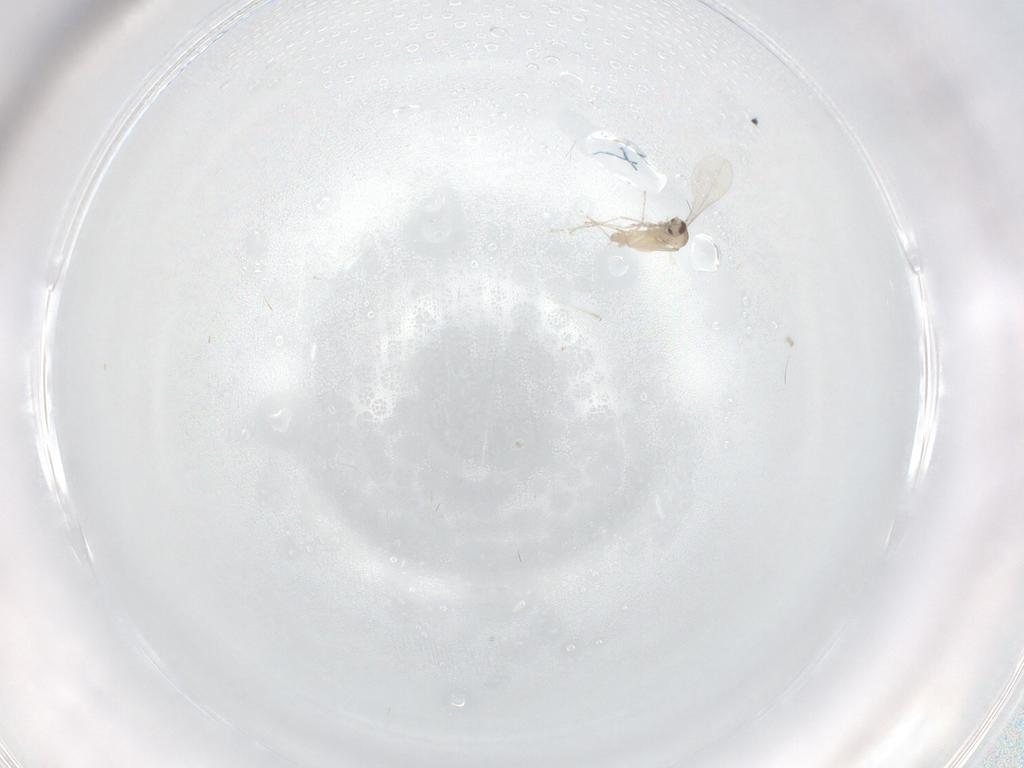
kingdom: Animalia
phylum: Arthropoda
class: Insecta
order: Diptera
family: Cecidomyiidae
